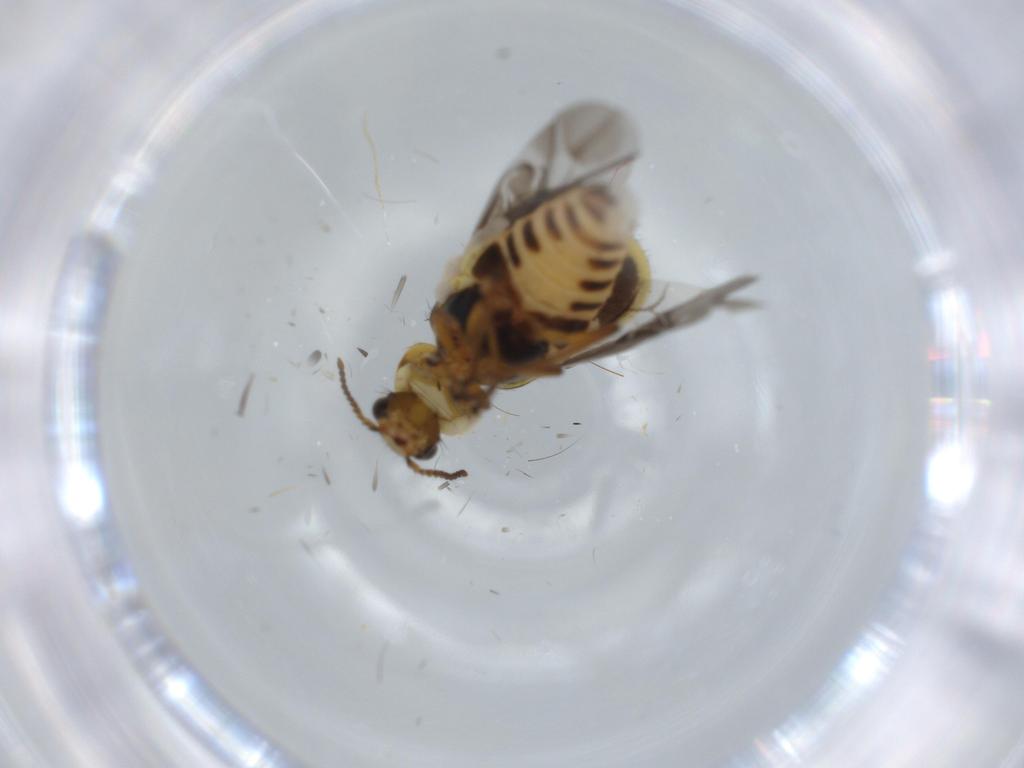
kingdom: Animalia
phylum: Arthropoda
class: Insecta
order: Coleoptera
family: Melyridae
